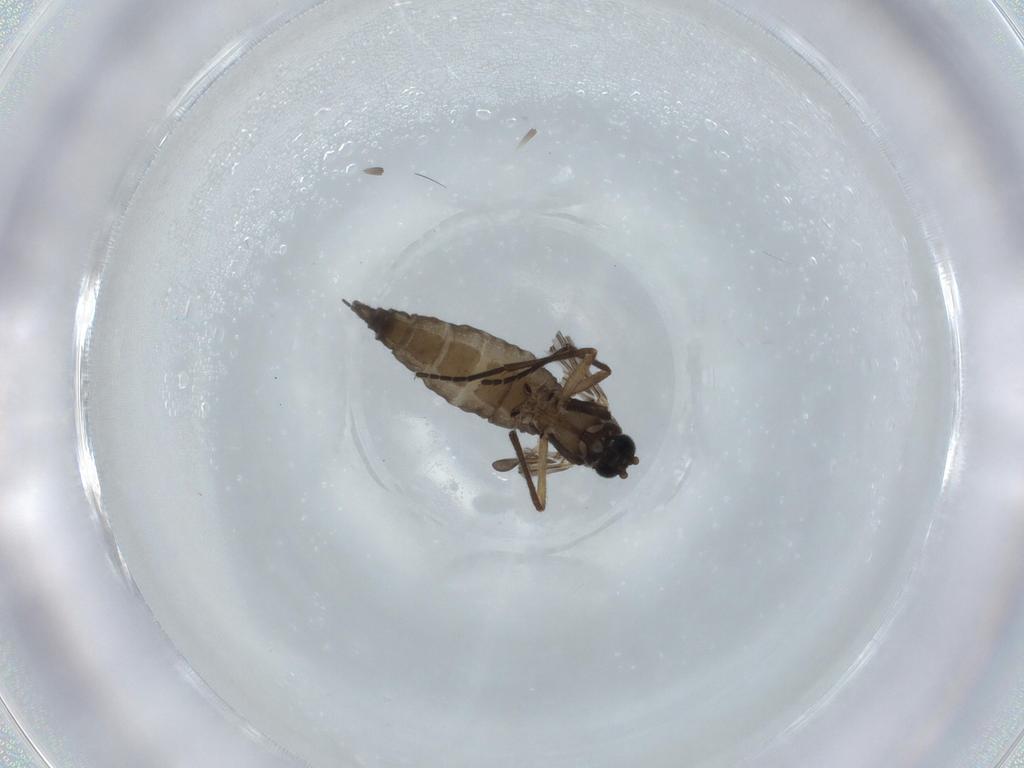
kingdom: Animalia
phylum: Arthropoda
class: Insecta
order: Diptera
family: Sciaridae
